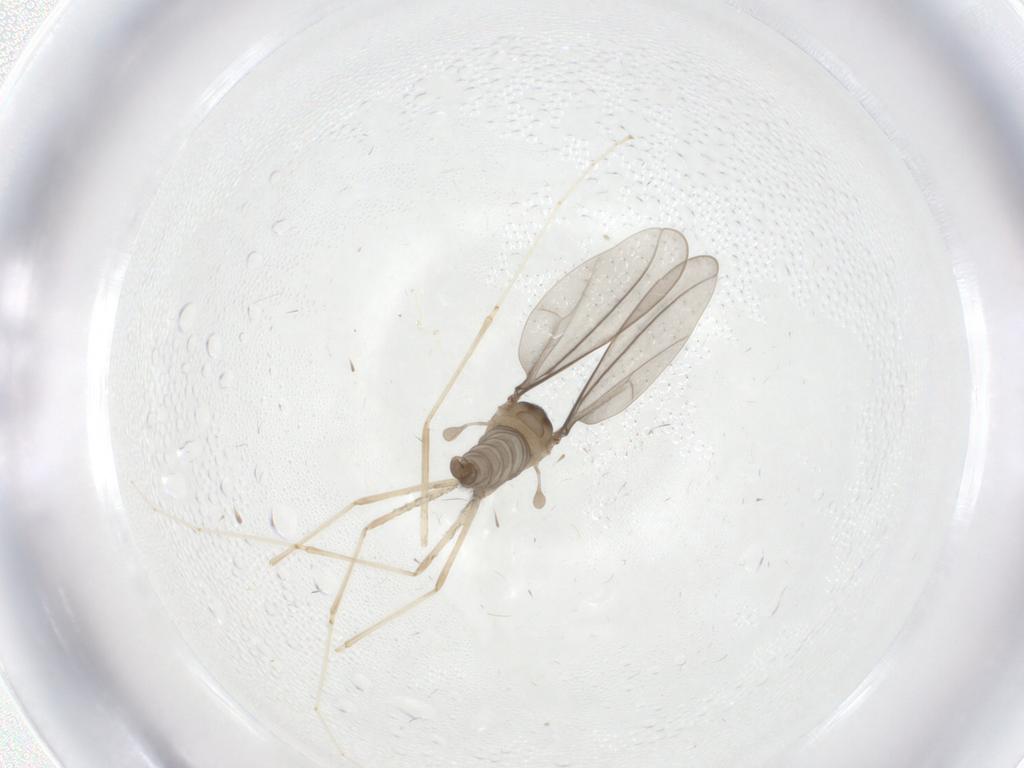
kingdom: Animalia
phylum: Arthropoda
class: Insecta
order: Diptera
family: Cecidomyiidae
